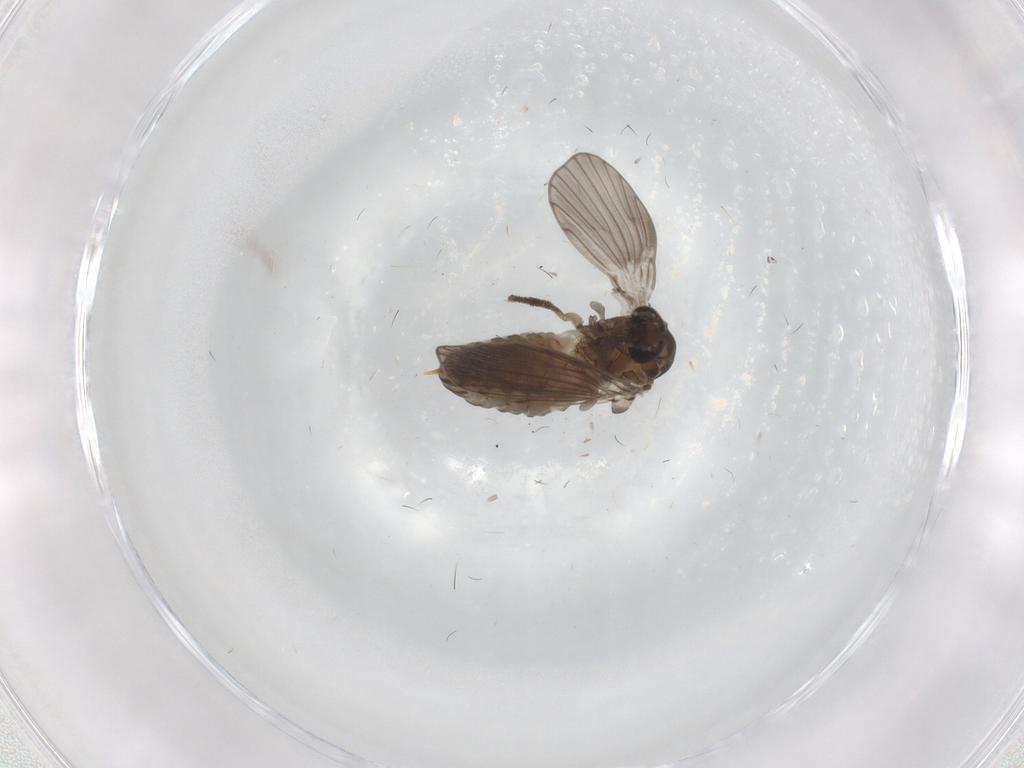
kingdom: Animalia
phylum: Arthropoda
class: Insecta
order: Diptera
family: Psychodidae
